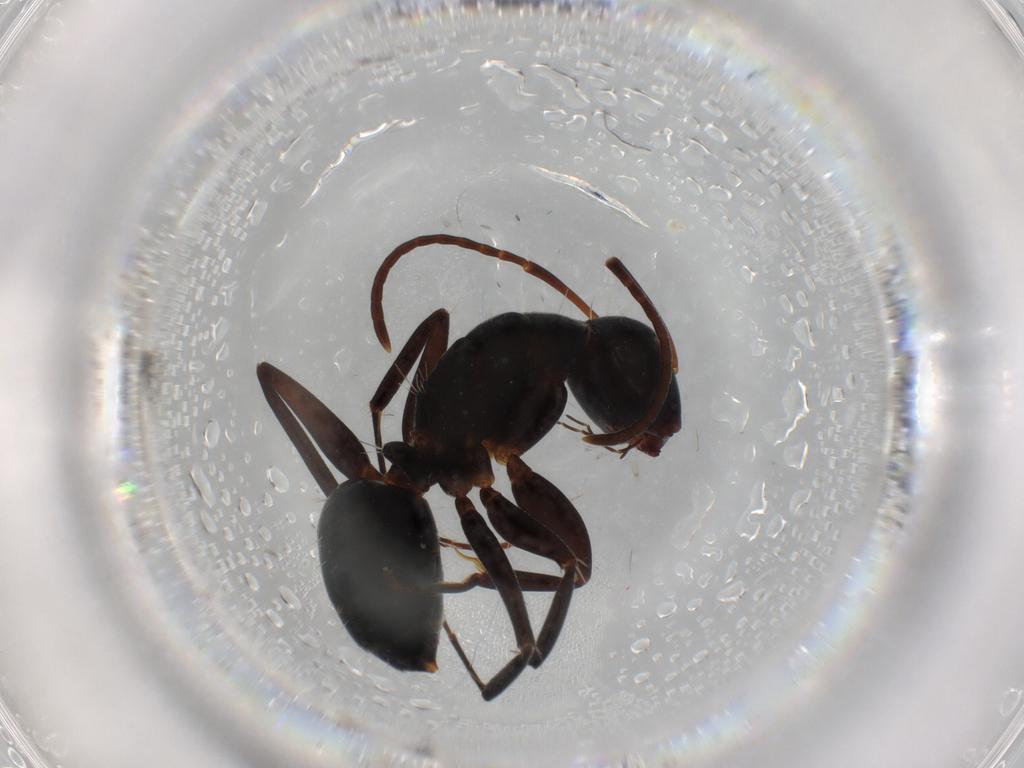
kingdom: Animalia
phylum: Arthropoda
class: Insecta
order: Hymenoptera
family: Formicidae
